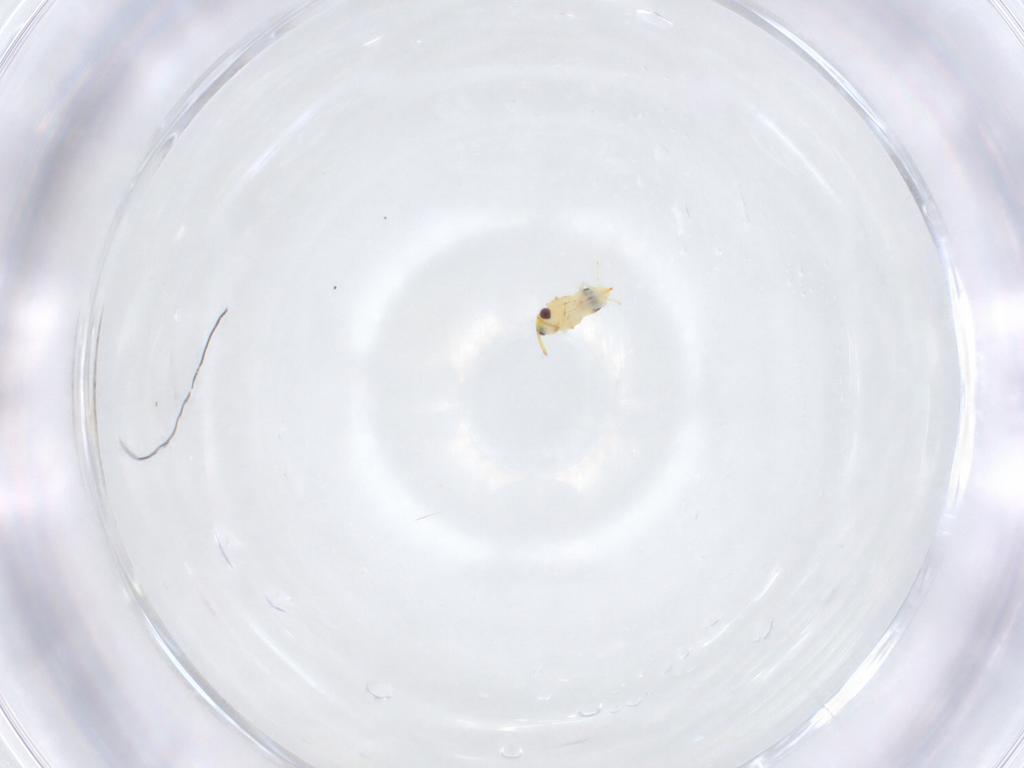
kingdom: Animalia
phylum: Arthropoda
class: Insecta
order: Hymenoptera
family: Aphelinidae
